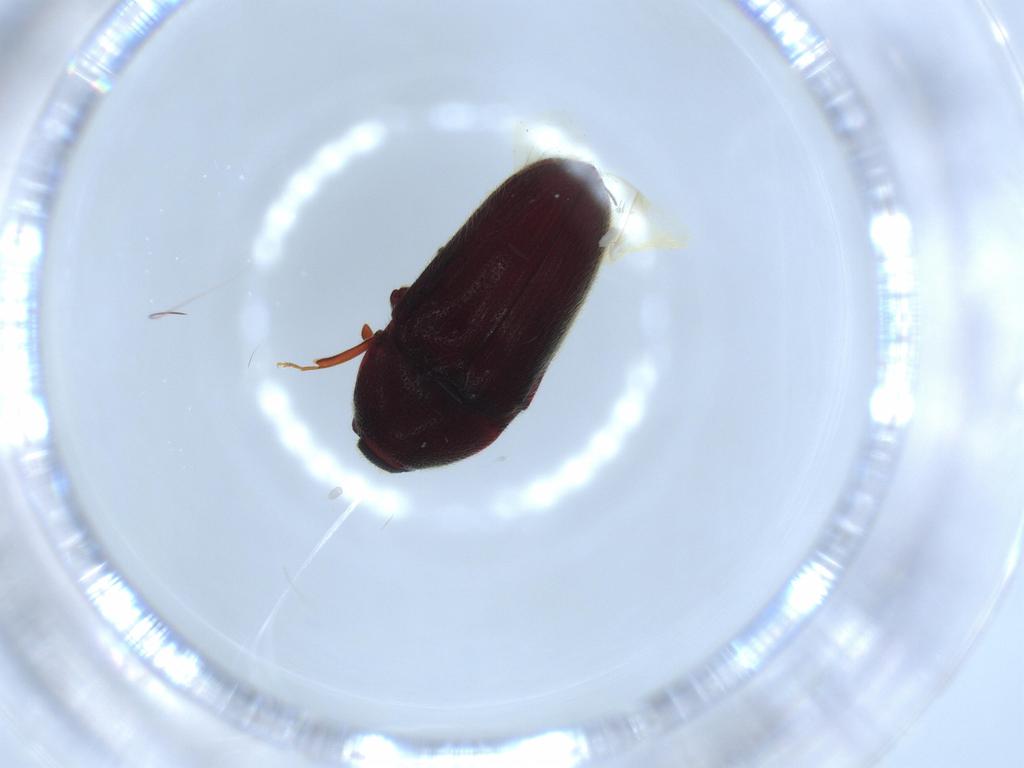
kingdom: Animalia
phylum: Arthropoda
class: Insecta
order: Coleoptera
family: Throscidae
